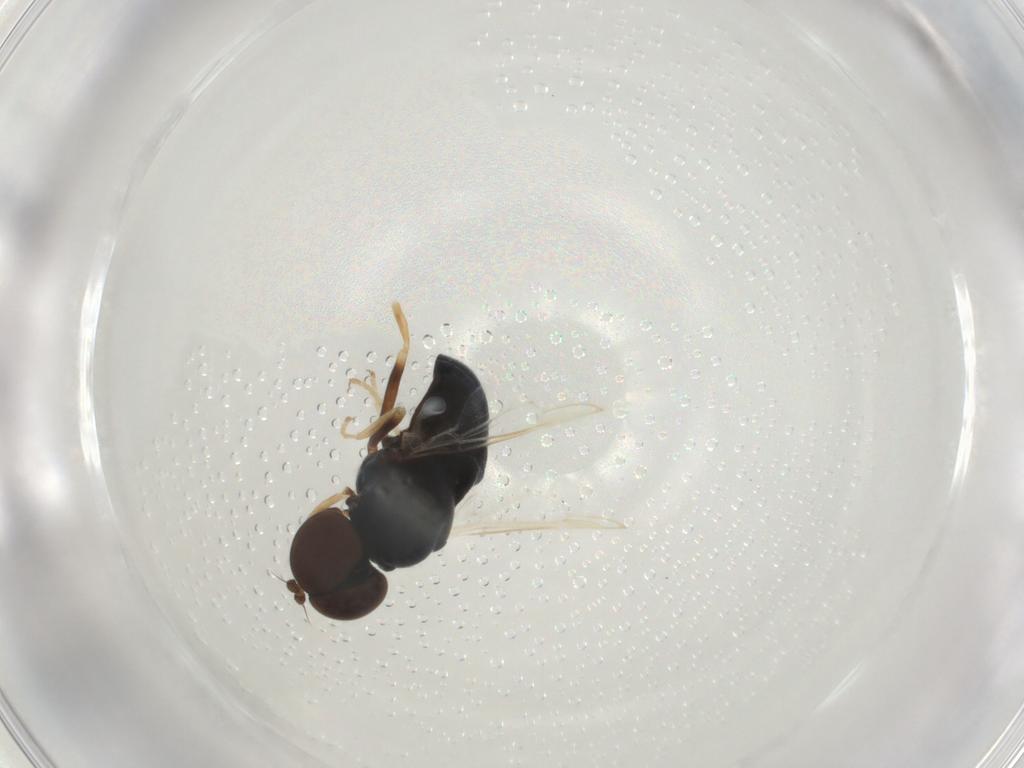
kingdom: Animalia
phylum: Arthropoda
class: Insecta
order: Diptera
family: Stratiomyidae
